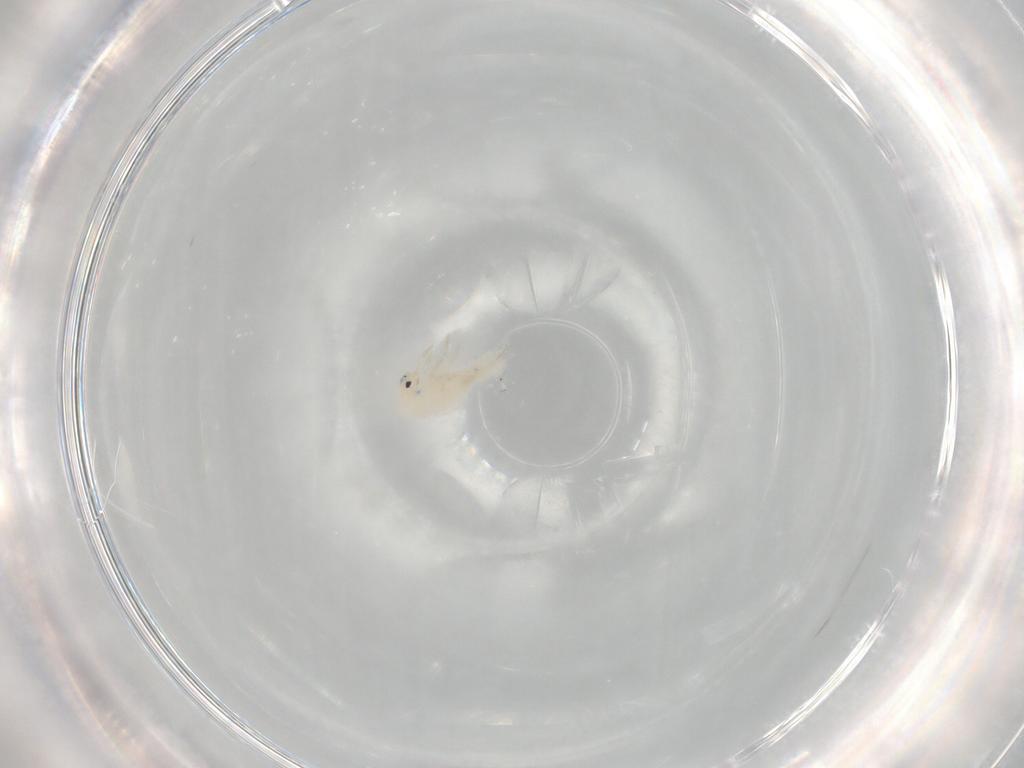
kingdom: Animalia
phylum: Arthropoda
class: Collembola
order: Entomobryomorpha
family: Entomobryidae
